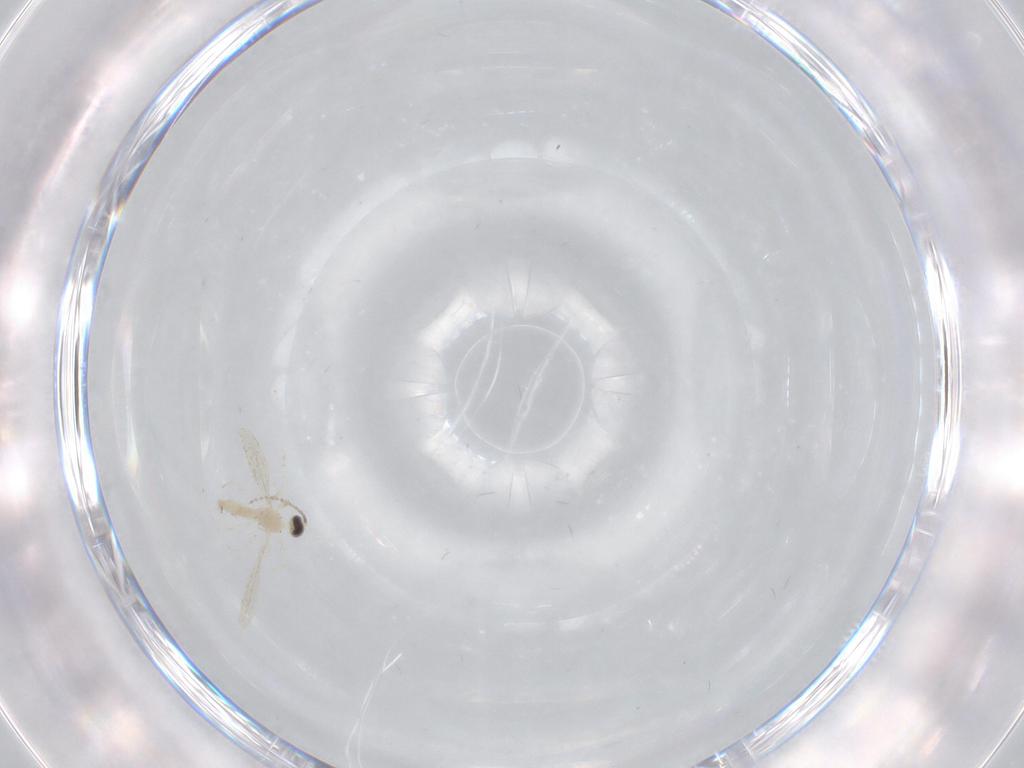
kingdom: Animalia
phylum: Arthropoda
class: Insecta
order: Diptera
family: Cecidomyiidae
